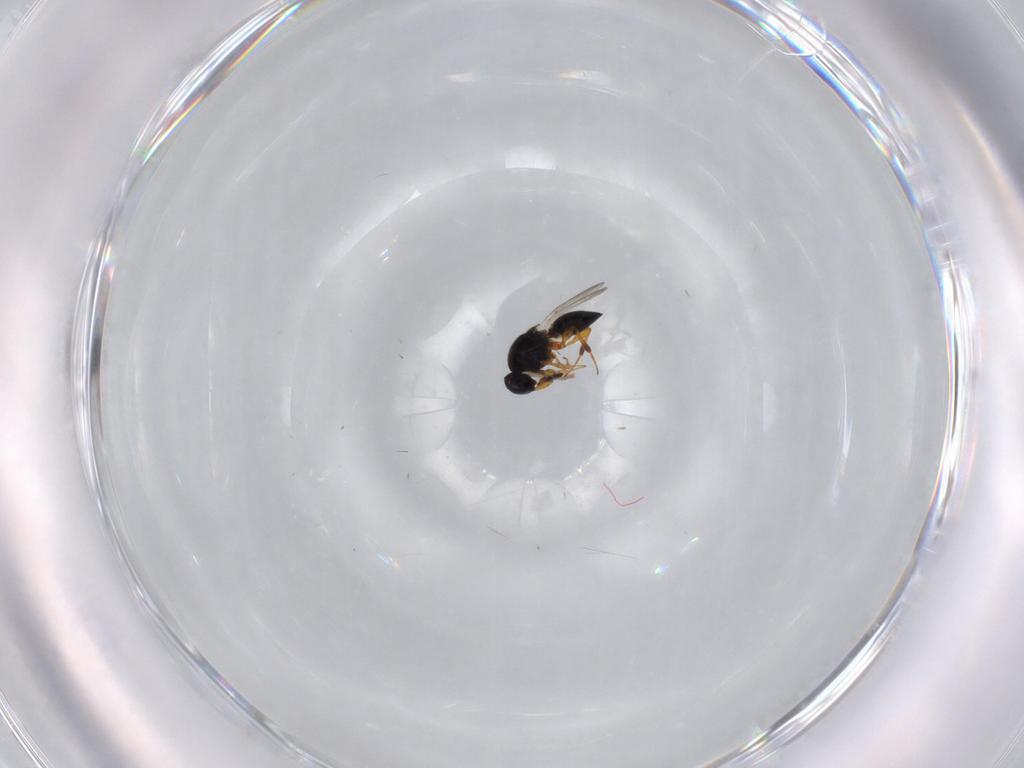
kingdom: Animalia
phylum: Arthropoda
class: Insecta
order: Hymenoptera
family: Platygastridae
